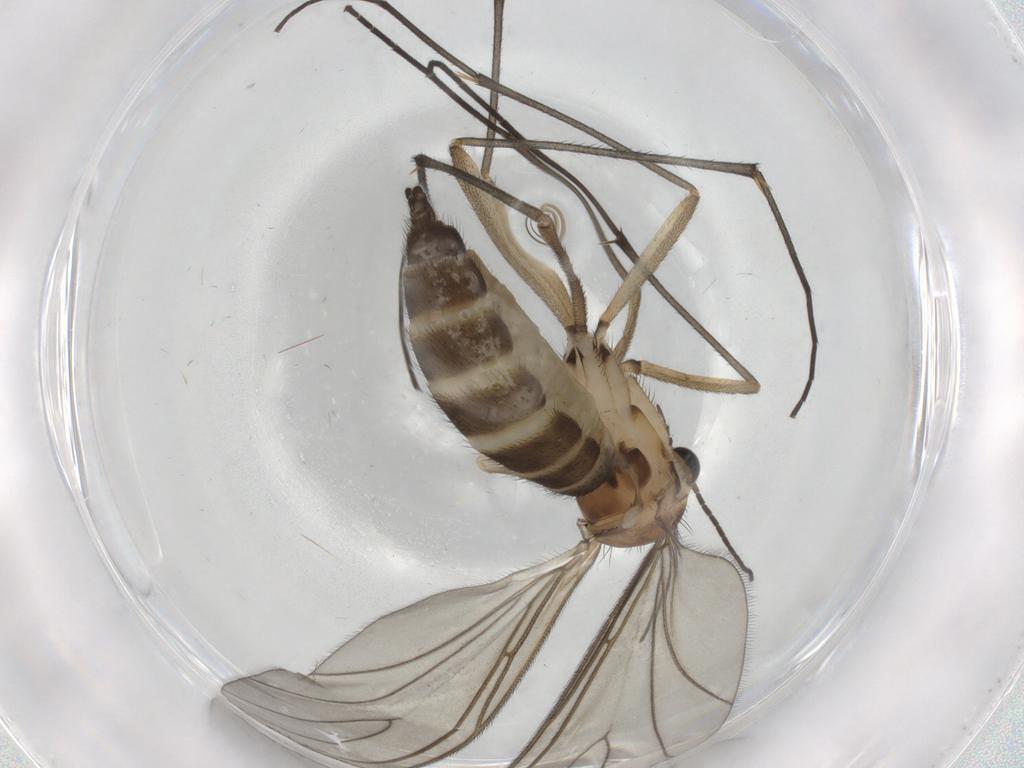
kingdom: Animalia
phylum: Arthropoda
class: Insecta
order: Diptera
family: Sciaridae
